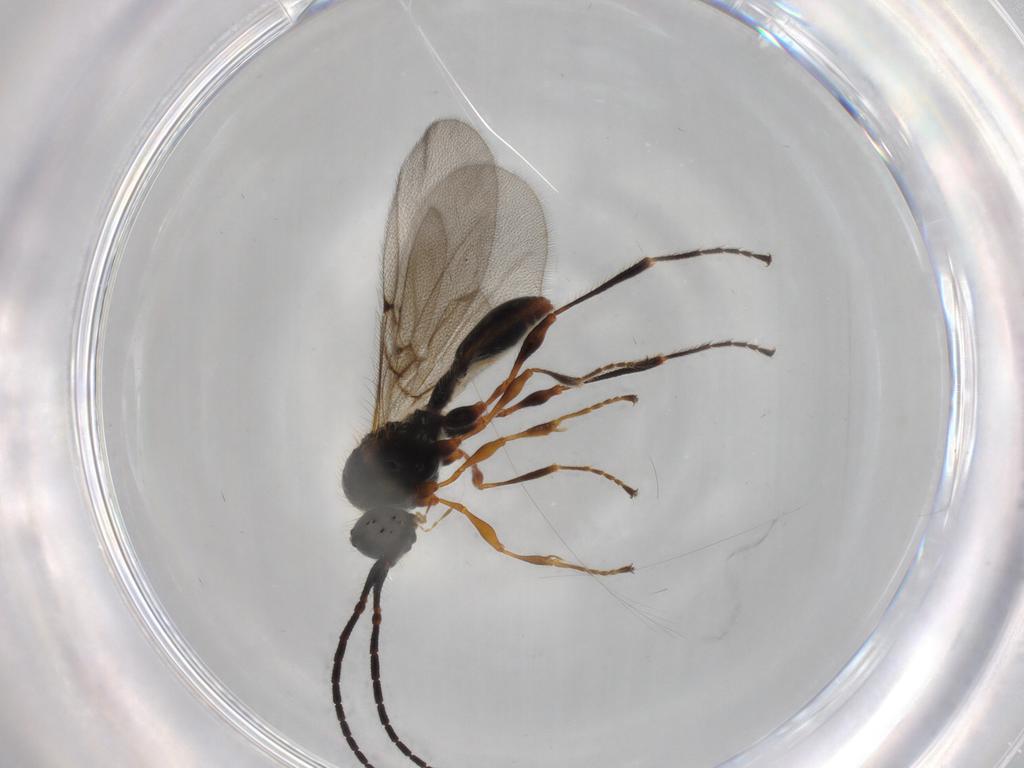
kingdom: Animalia
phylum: Arthropoda
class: Insecta
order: Hymenoptera
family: Diapriidae
